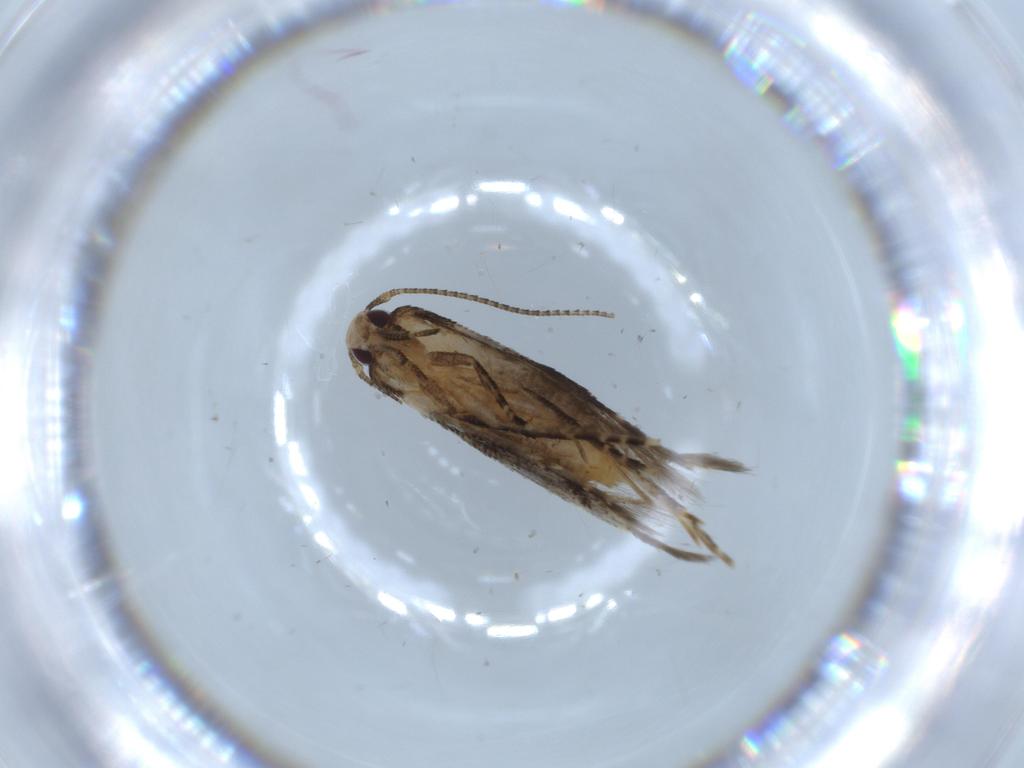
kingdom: Animalia
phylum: Arthropoda
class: Insecta
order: Lepidoptera
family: Stathmopodidae
